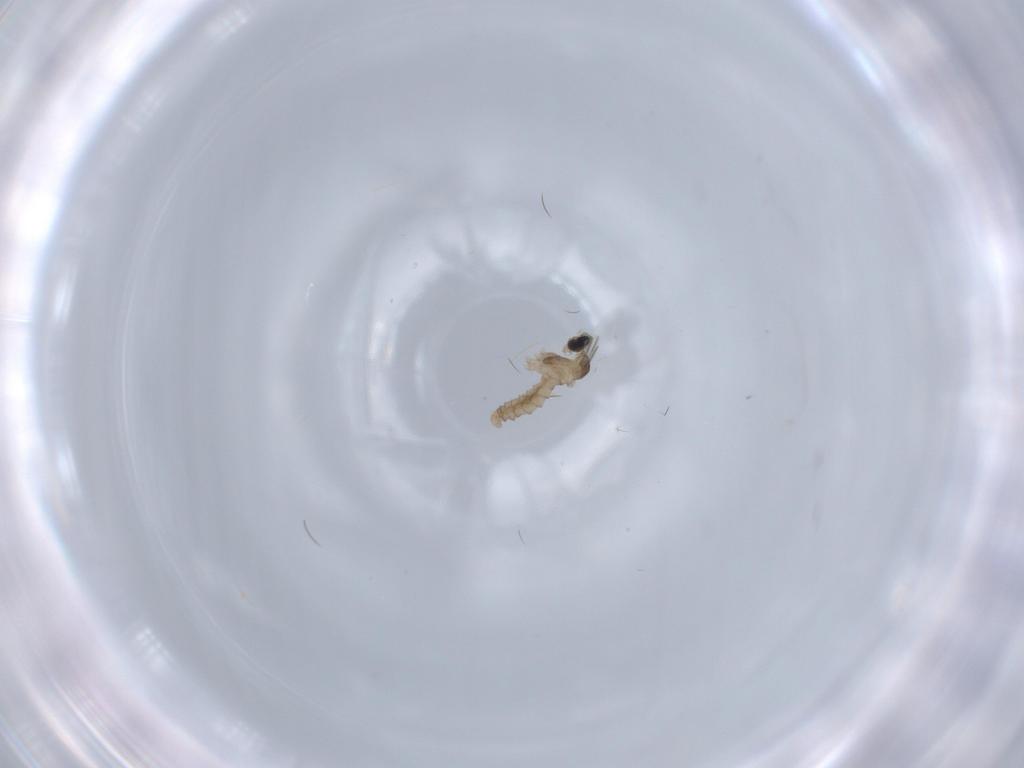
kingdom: Animalia
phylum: Arthropoda
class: Insecta
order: Diptera
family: Cecidomyiidae
